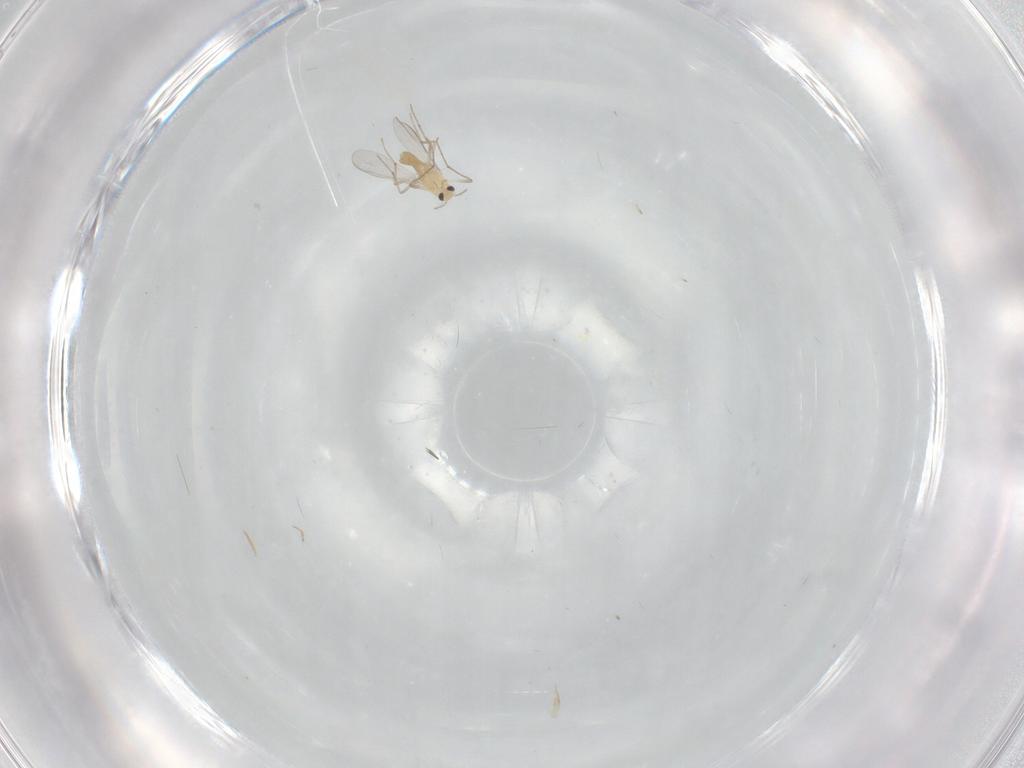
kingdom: Animalia
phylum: Arthropoda
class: Insecta
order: Diptera
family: Chironomidae
